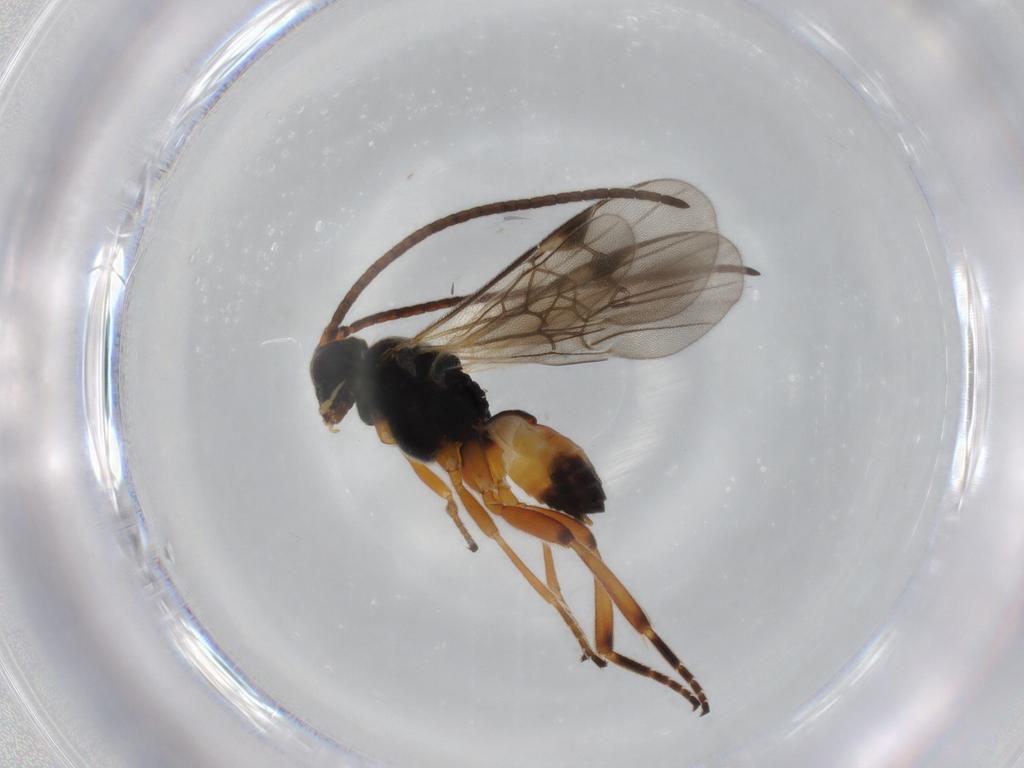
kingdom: Animalia
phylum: Arthropoda
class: Insecta
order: Hymenoptera
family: Braconidae
